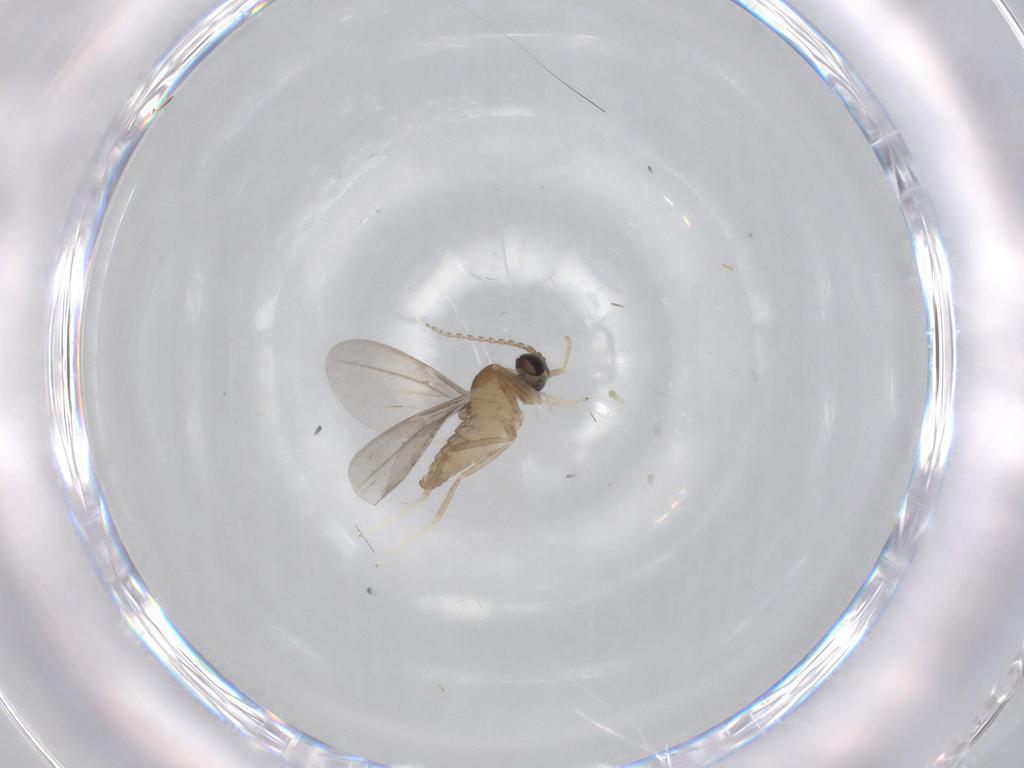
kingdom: Animalia
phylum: Arthropoda
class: Insecta
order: Diptera
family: Cecidomyiidae
